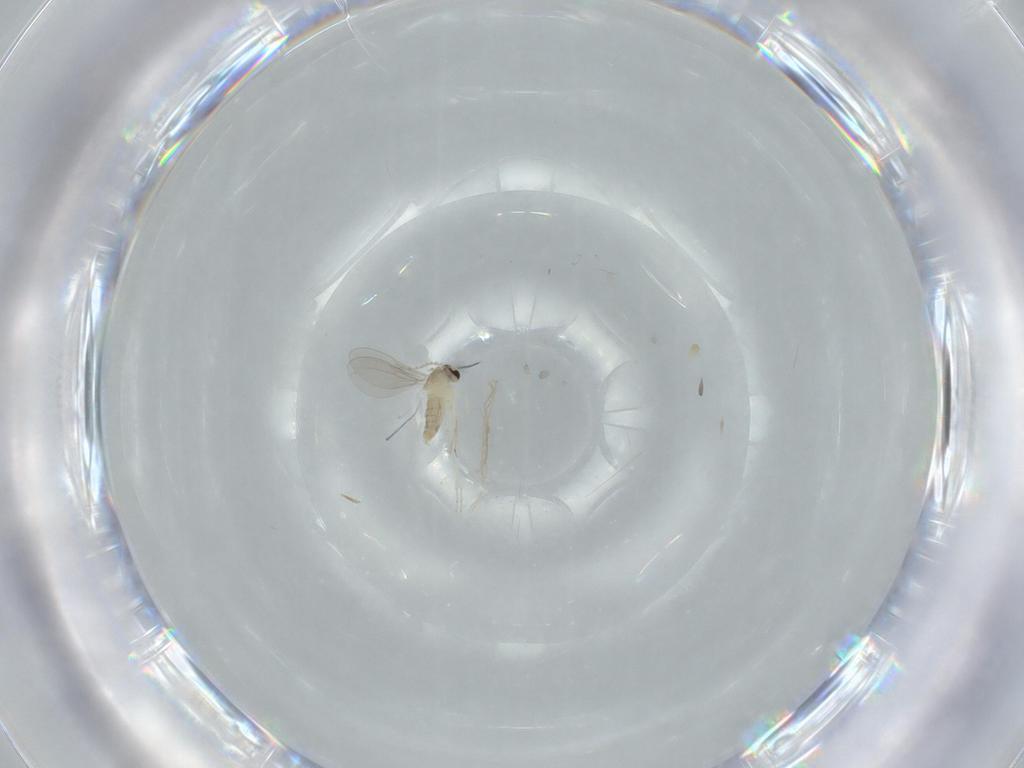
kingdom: Animalia
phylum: Arthropoda
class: Insecta
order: Diptera
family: Cecidomyiidae
